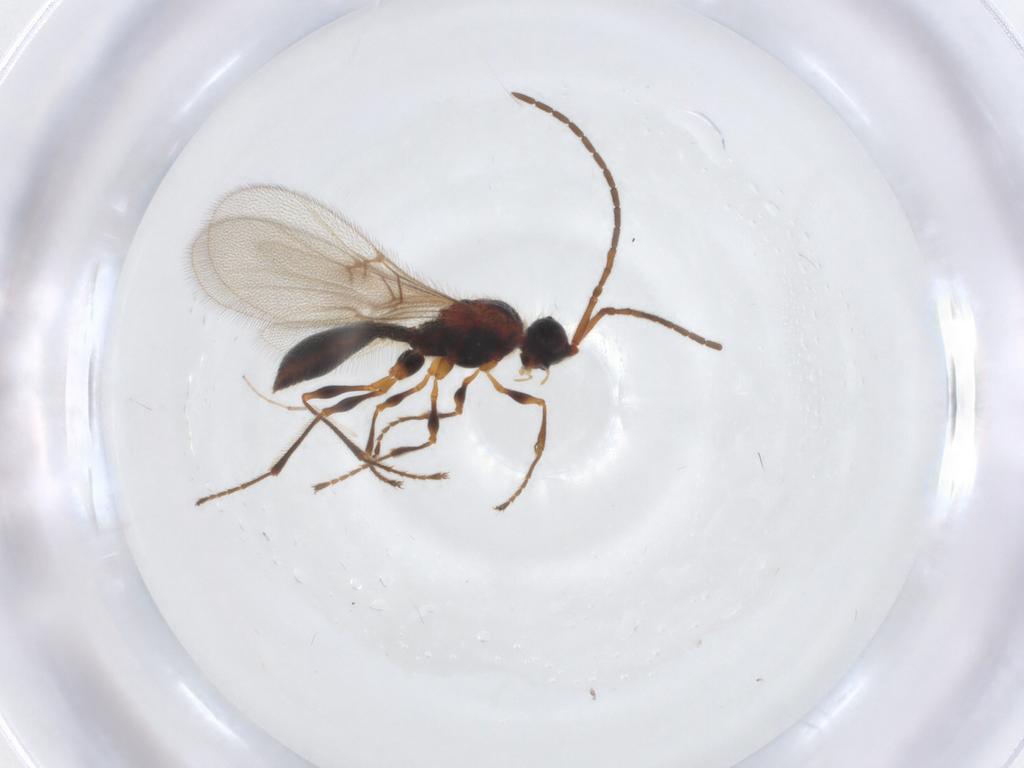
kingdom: Animalia
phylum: Arthropoda
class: Insecta
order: Hymenoptera
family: Diapriidae
